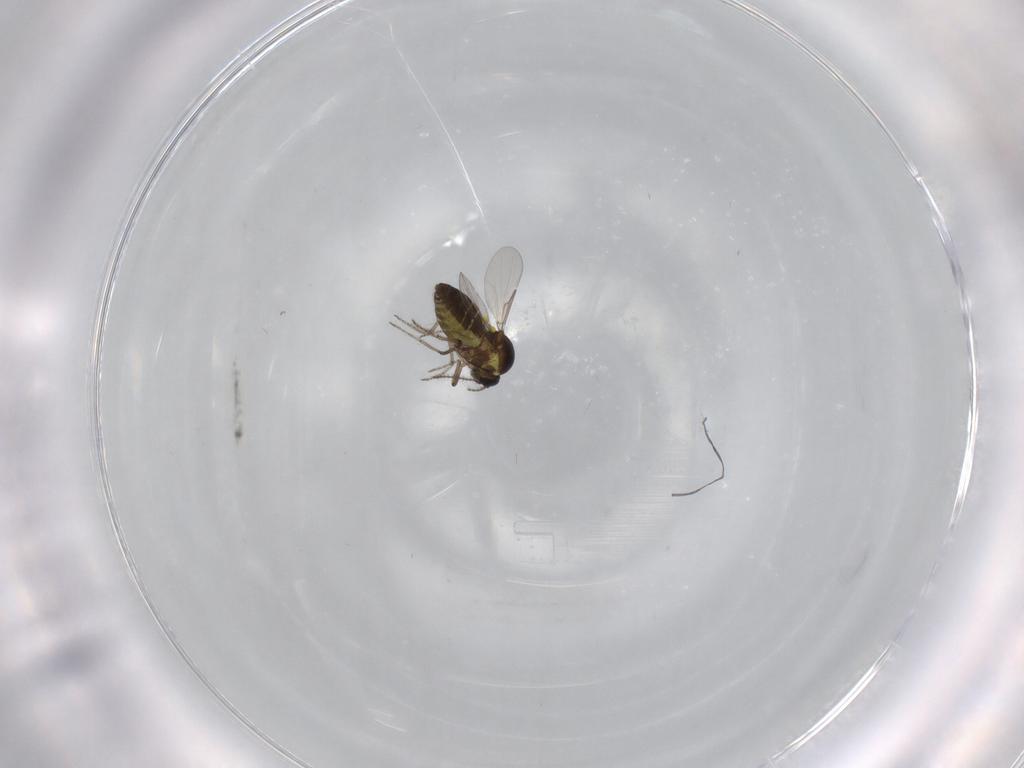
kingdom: Animalia
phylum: Arthropoda
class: Insecta
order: Diptera
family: Ceratopogonidae
